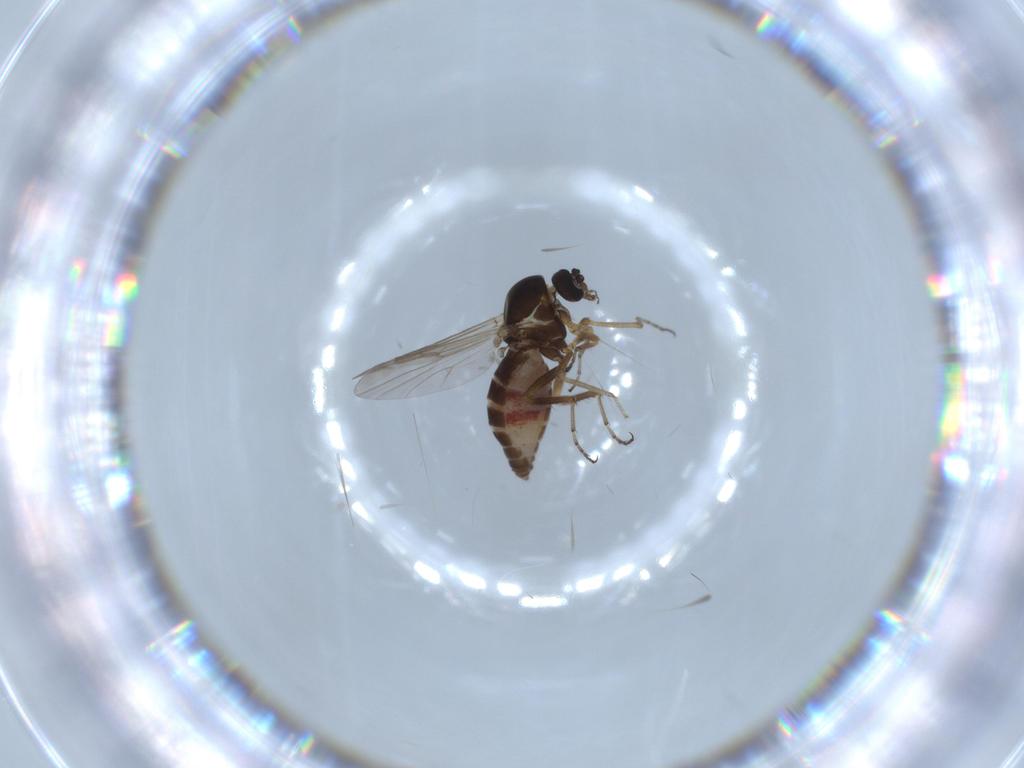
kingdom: Animalia
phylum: Arthropoda
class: Insecta
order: Diptera
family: Ceratopogonidae
